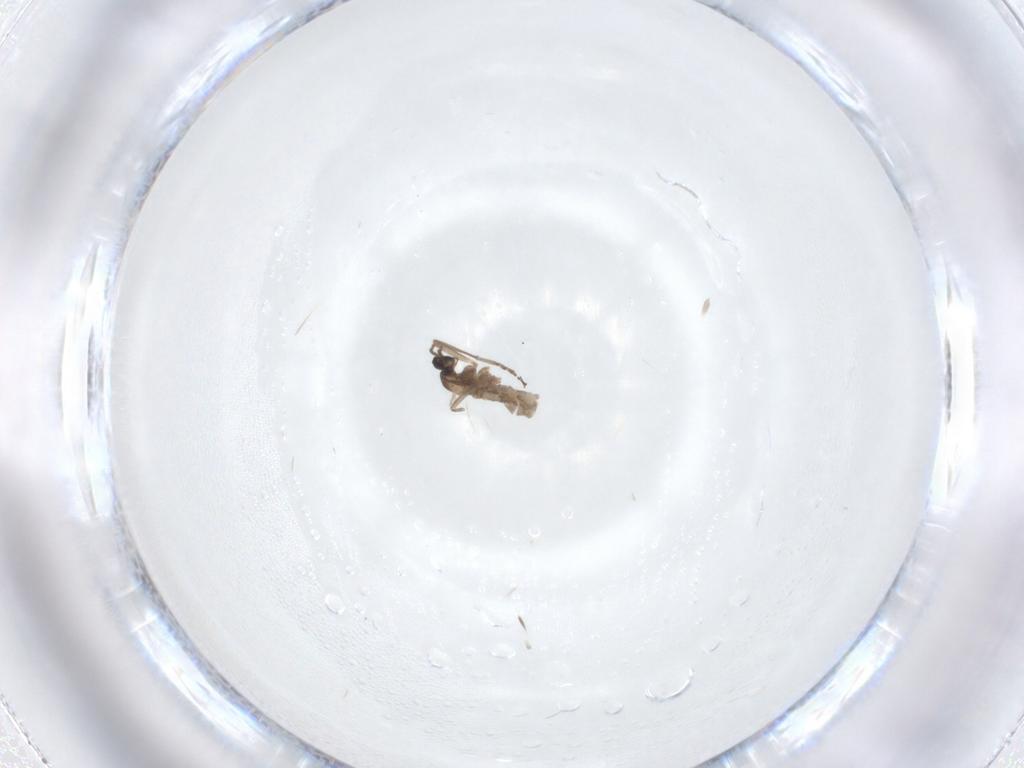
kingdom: Animalia
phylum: Arthropoda
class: Insecta
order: Diptera
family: Cecidomyiidae
